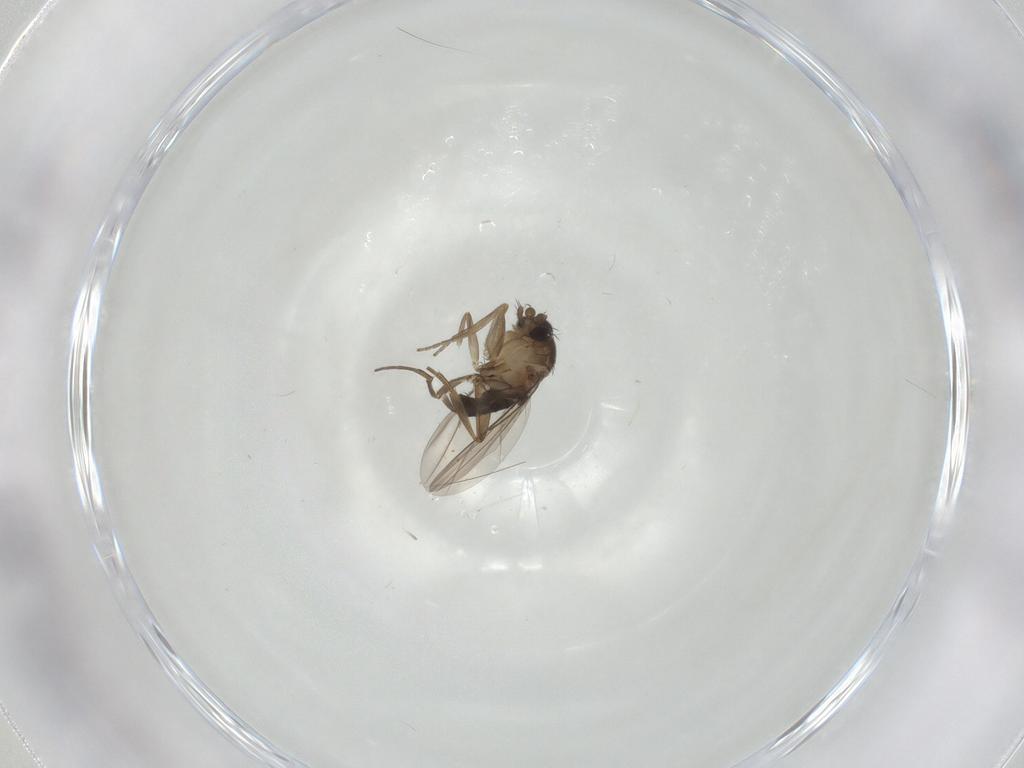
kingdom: Animalia
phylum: Arthropoda
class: Insecta
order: Diptera
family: Phoridae
